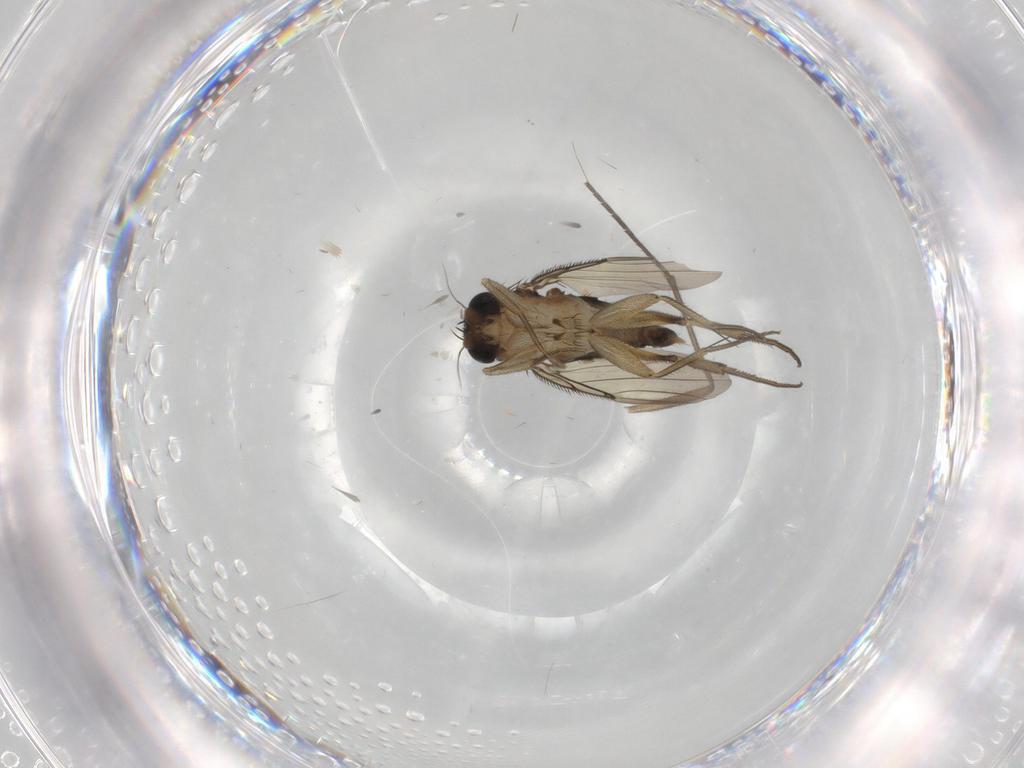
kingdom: Animalia
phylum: Arthropoda
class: Insecta
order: Diptera
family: Phoridae
